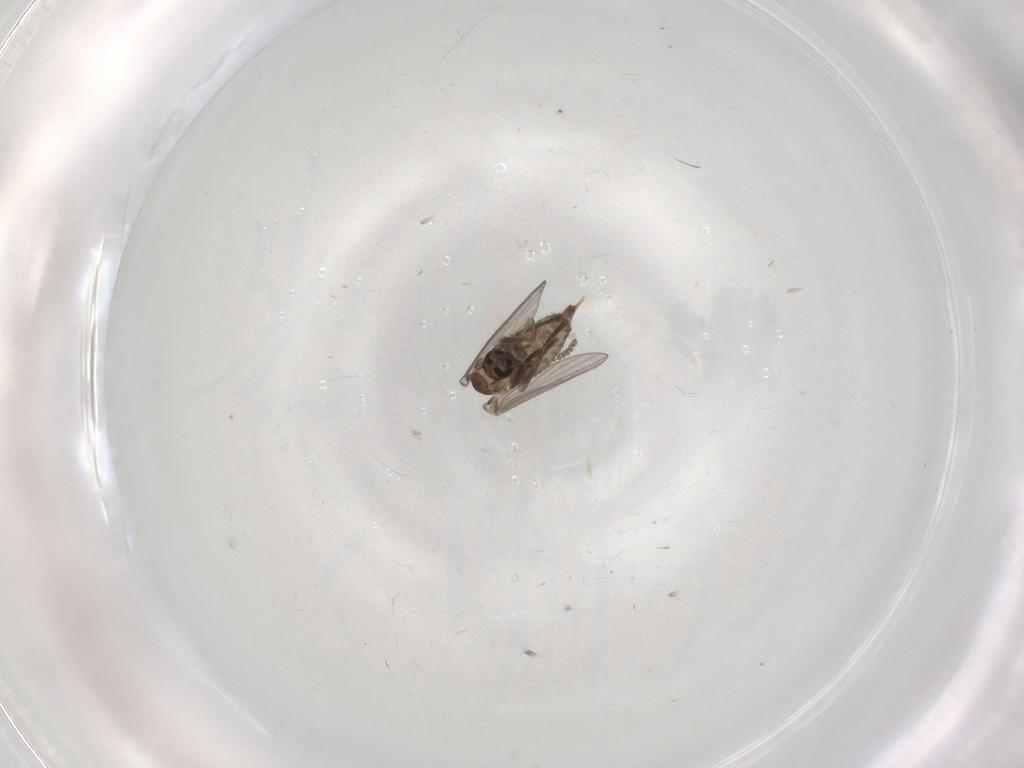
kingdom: Animalia
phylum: Arthropoda
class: Insecta
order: Diptera
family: Psychodidae
